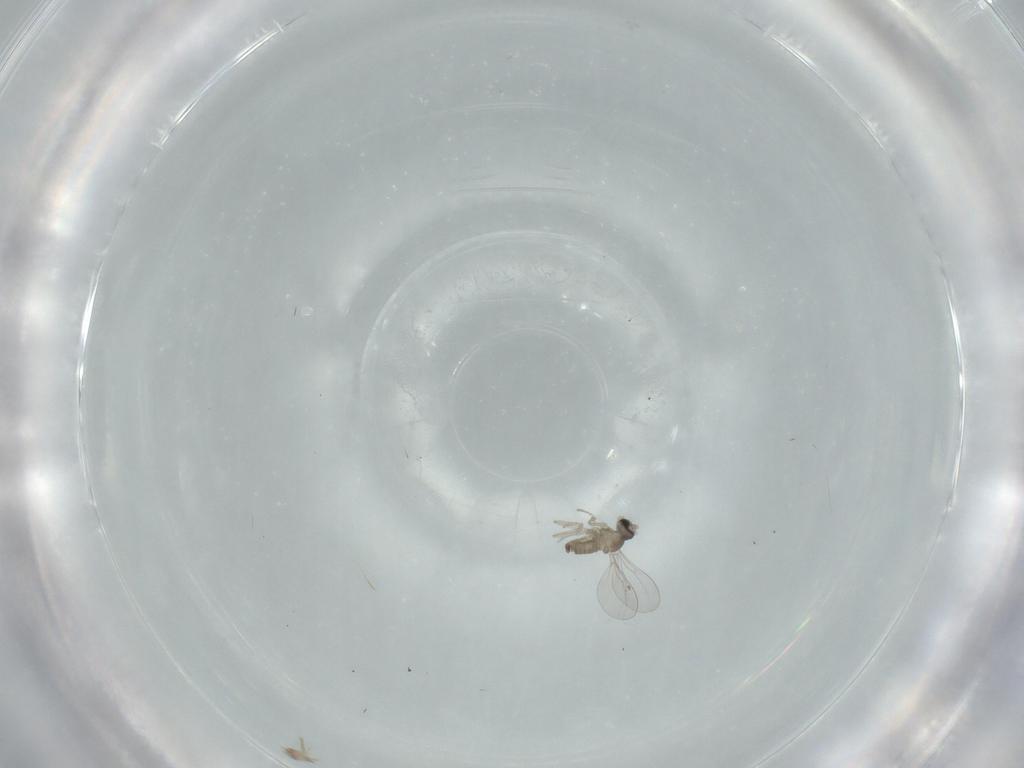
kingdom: Animalia
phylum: Arthropoda
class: Insecta
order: Diptera
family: Cecidomyiidae
